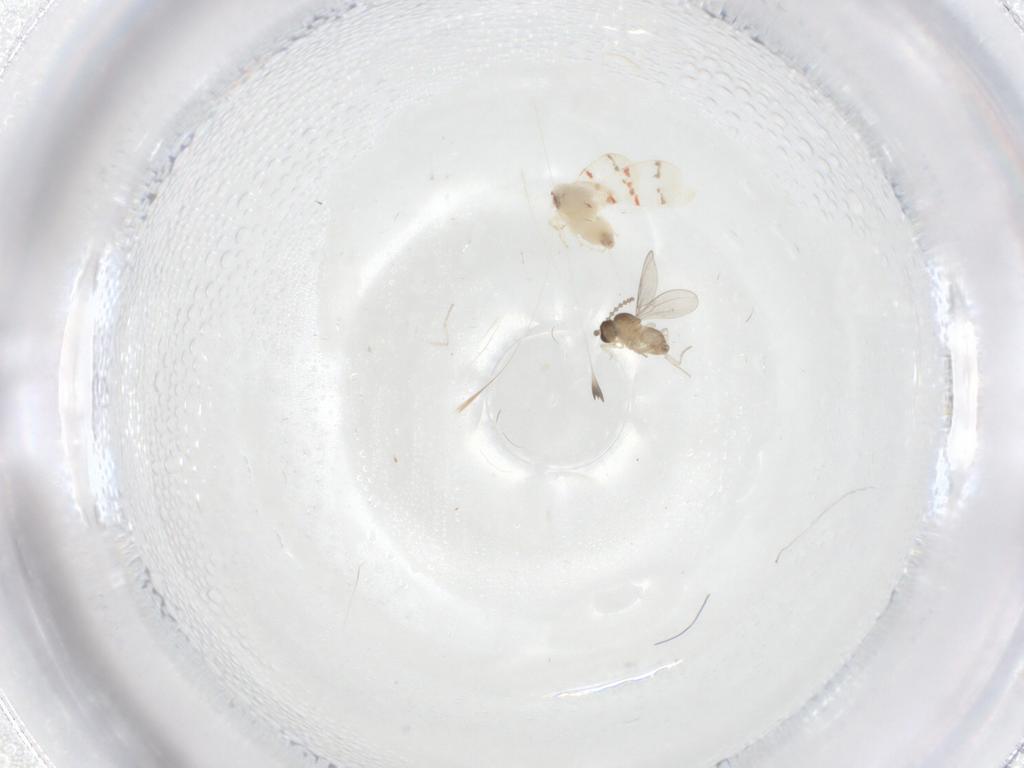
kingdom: Animalia
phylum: Arthropoda
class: Insecta
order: Diptera
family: Cecidomyiidae
